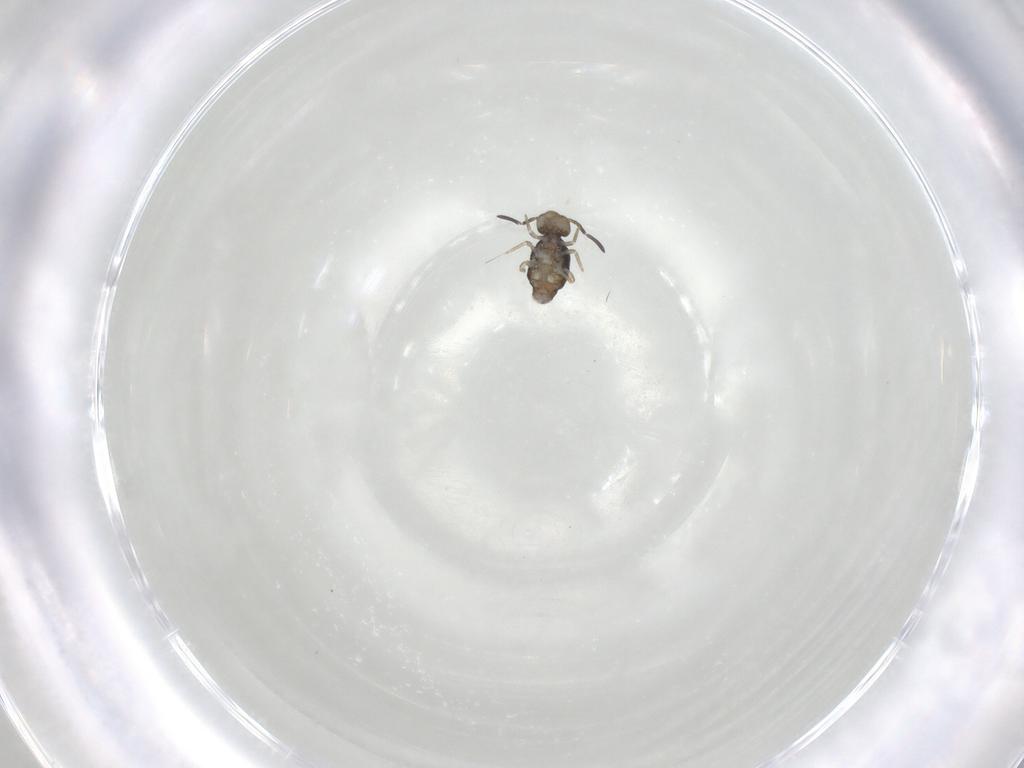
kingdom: Animalia
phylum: Arthropoda
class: Collembola
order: Symphypleona
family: Katiannidae
